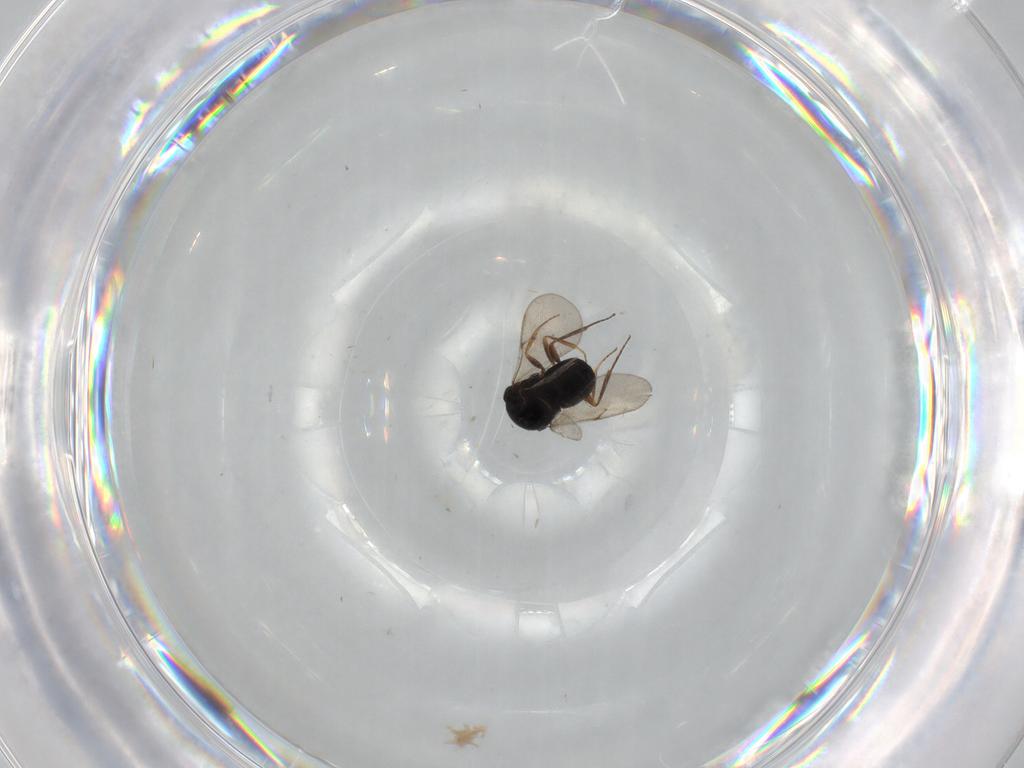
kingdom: Animalia
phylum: Arthropoda
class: Insecta
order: Hymenoptera
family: Scelionidae
